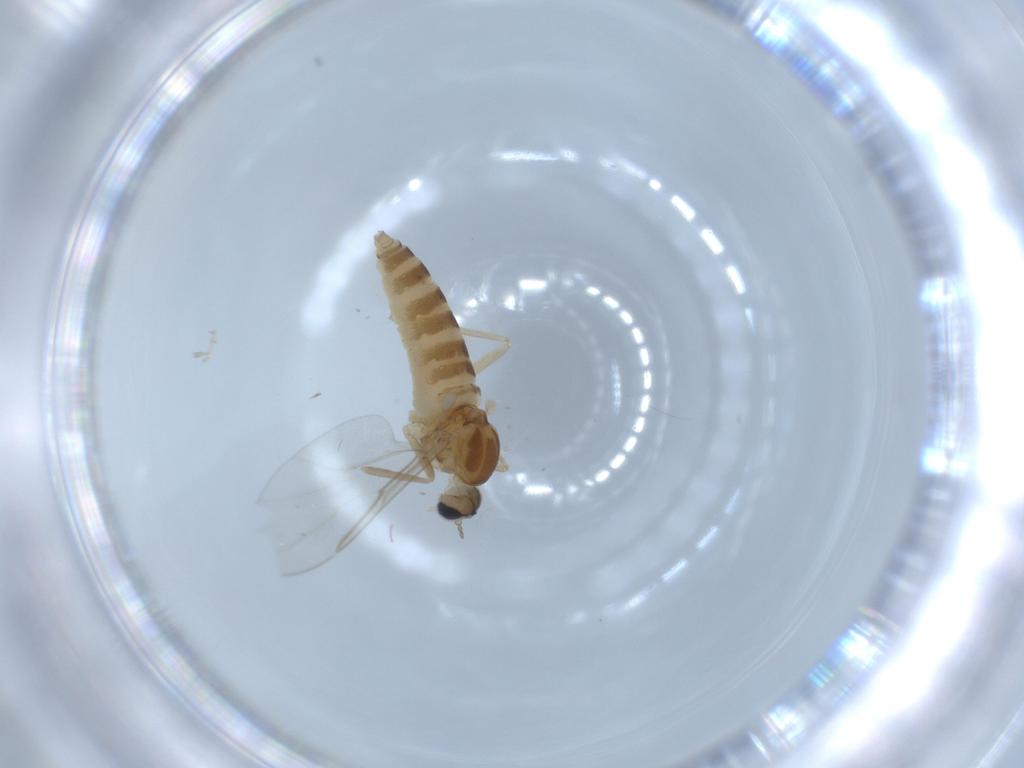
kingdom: Animalia
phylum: Arthropoda
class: Insecta
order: Diptera
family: Cecidomyiidae
